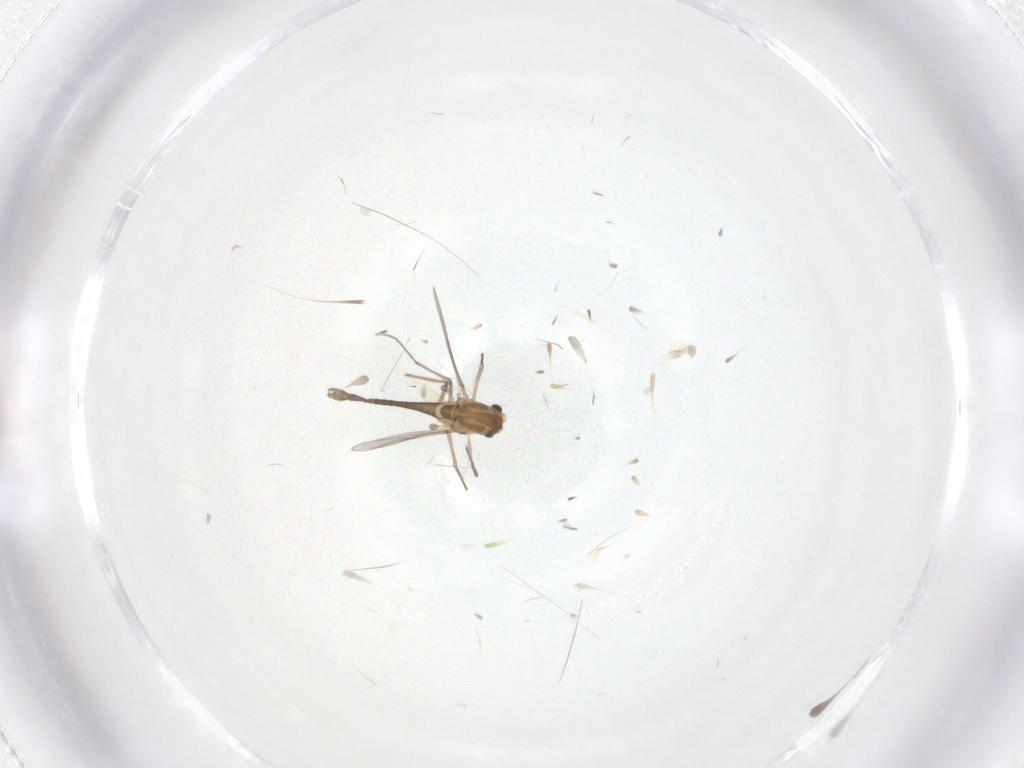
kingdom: Animalia
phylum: Arthropoda
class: Insecta
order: Diptera
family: Chironomidae
